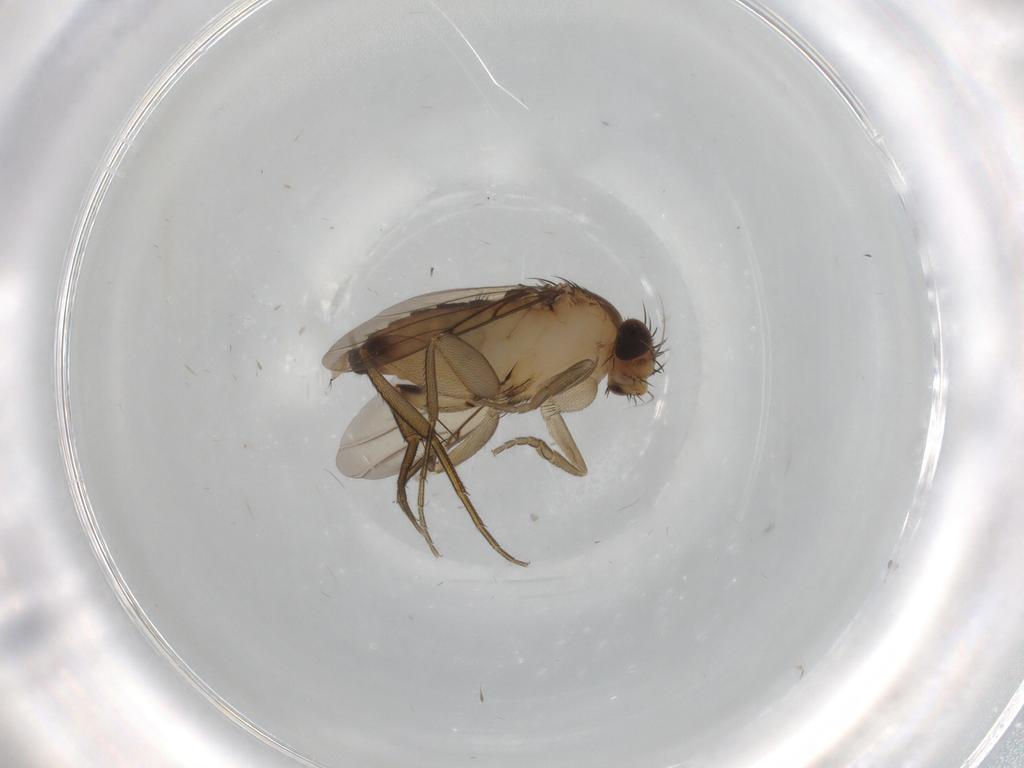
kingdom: Animalia
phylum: Arthropoda
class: Insecta
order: Diptera
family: Phoridae
